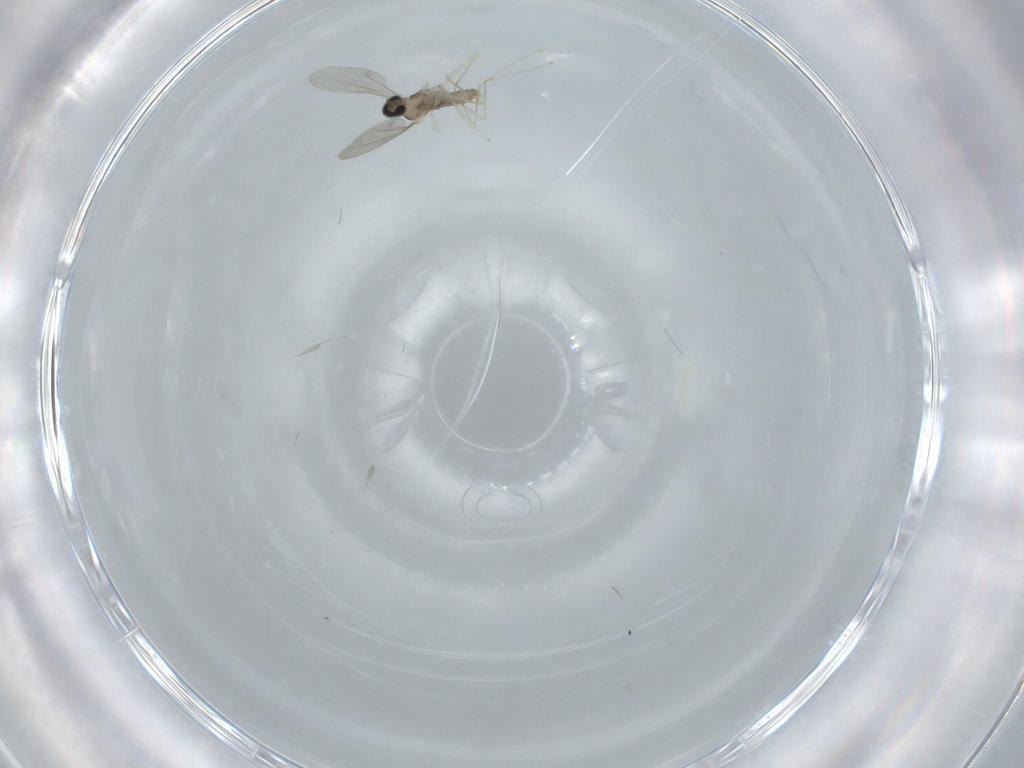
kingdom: Animalia
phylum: Arthropoda
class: Insecta
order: Diptera
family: Cecidomyiidae
